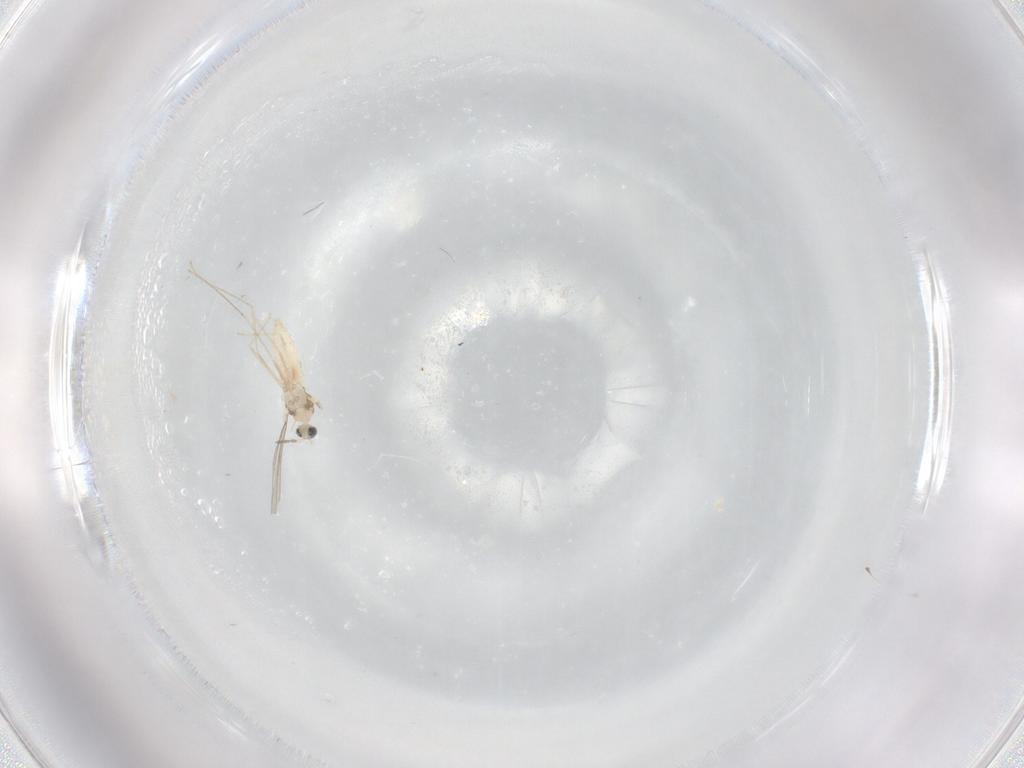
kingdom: Animalia
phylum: Arthropoda
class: Insecta
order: Diptera
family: Cecidomyiidae
